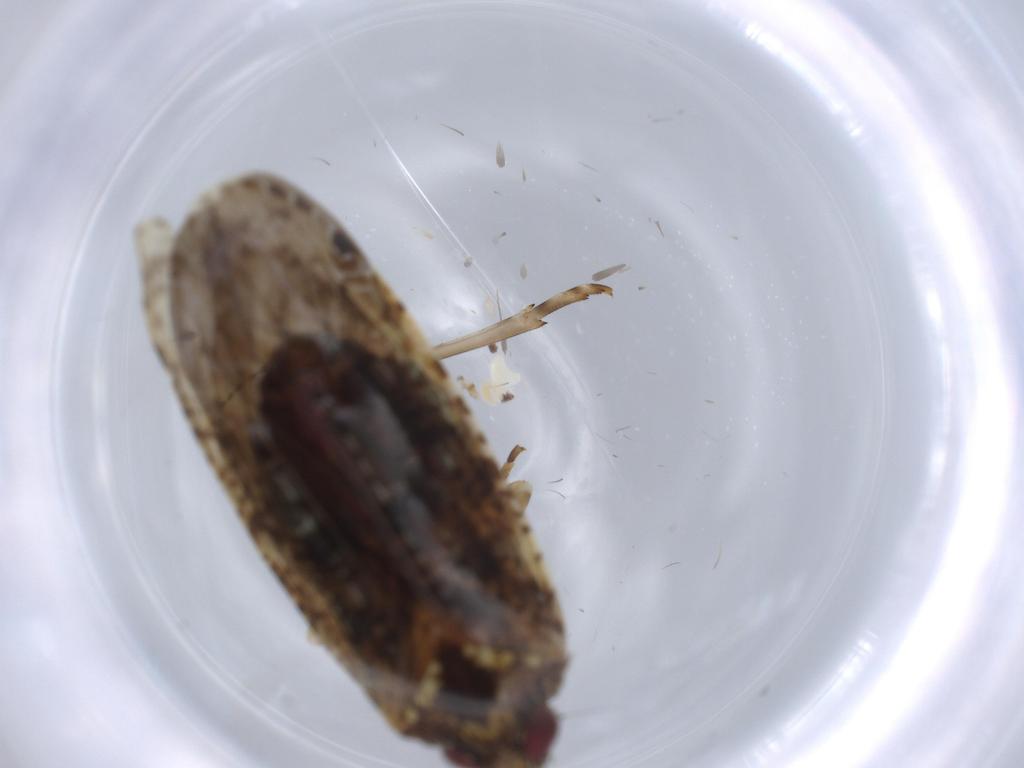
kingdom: Animalia
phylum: Arthropoda
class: Insecta
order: Hemiptera
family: Achilidae
